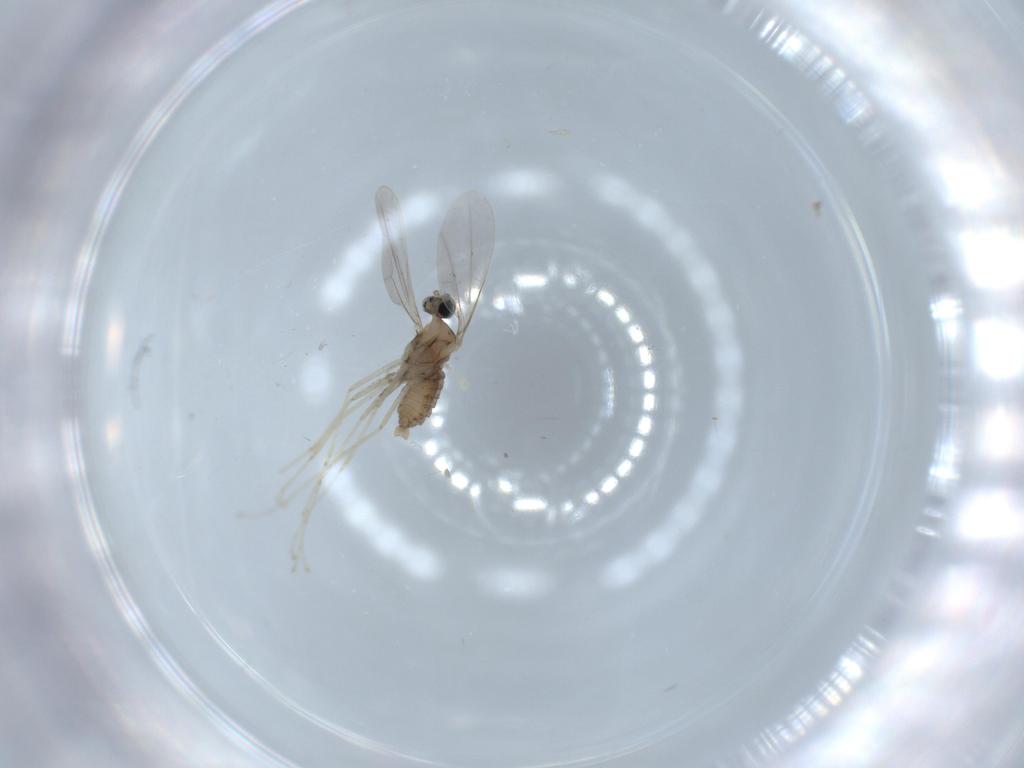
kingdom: Animalia
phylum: Arthropoda
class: Insecta
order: Diptera
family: Cecidomyiidae
